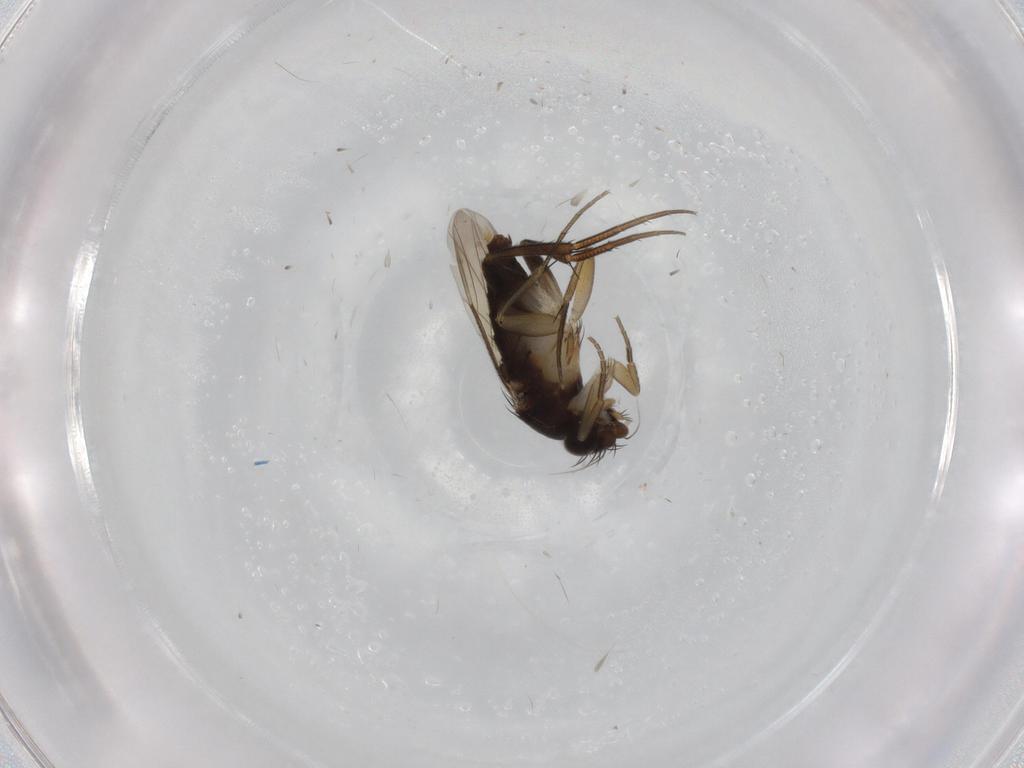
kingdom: Animalia
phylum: Arthropoda
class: Insecta
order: Diptera
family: Phoridae
